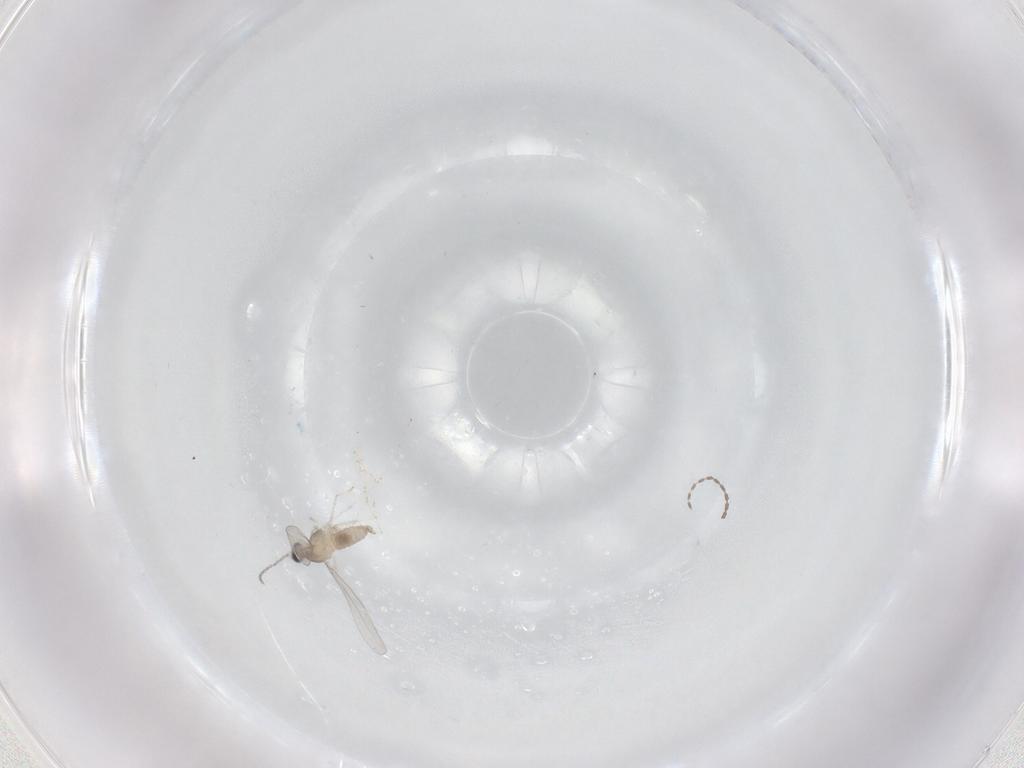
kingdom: Animalia
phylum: Arthropoda
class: Insecta
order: Diptera
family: Cecidomyiidae
